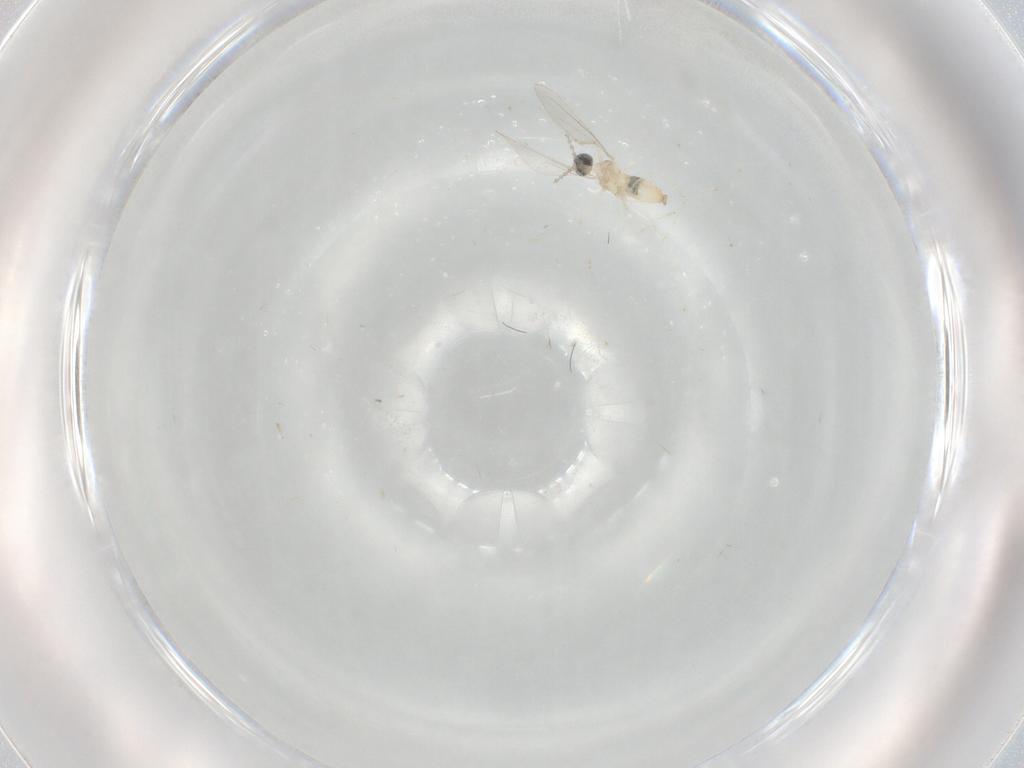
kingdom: Animalia
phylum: Arthropoda
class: Insecta
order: Diptera
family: Cecidomyiidae
